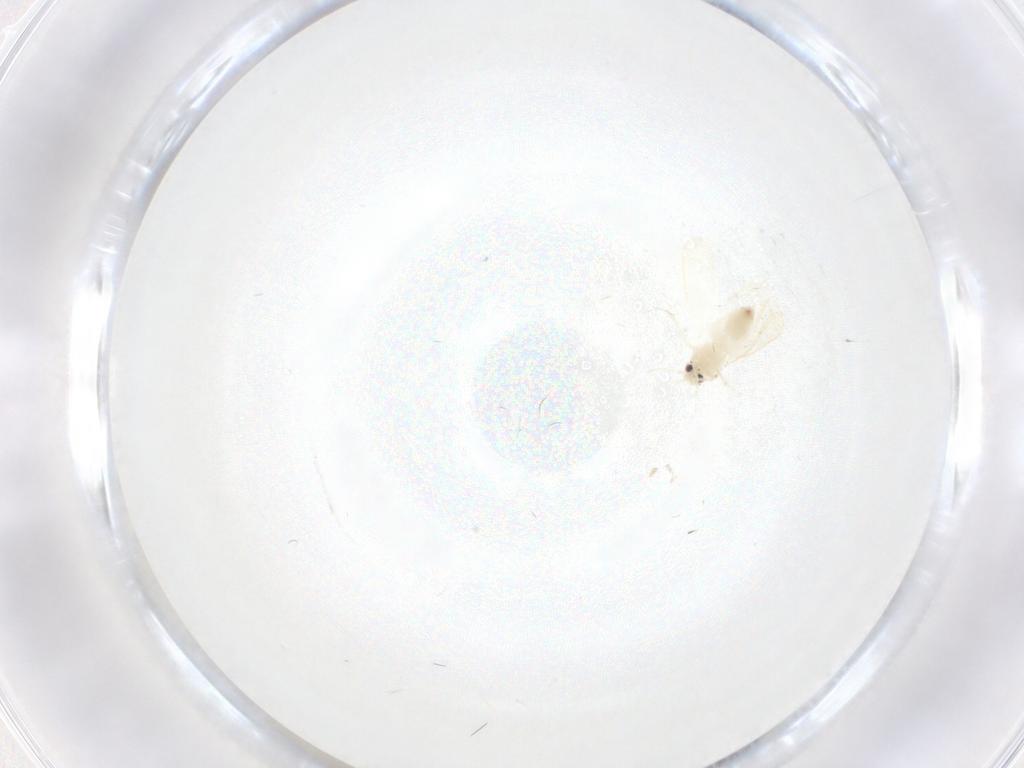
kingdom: Animalia
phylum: Arthropoda
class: Insecta
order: Hemiptera
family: Aleyrodidae
